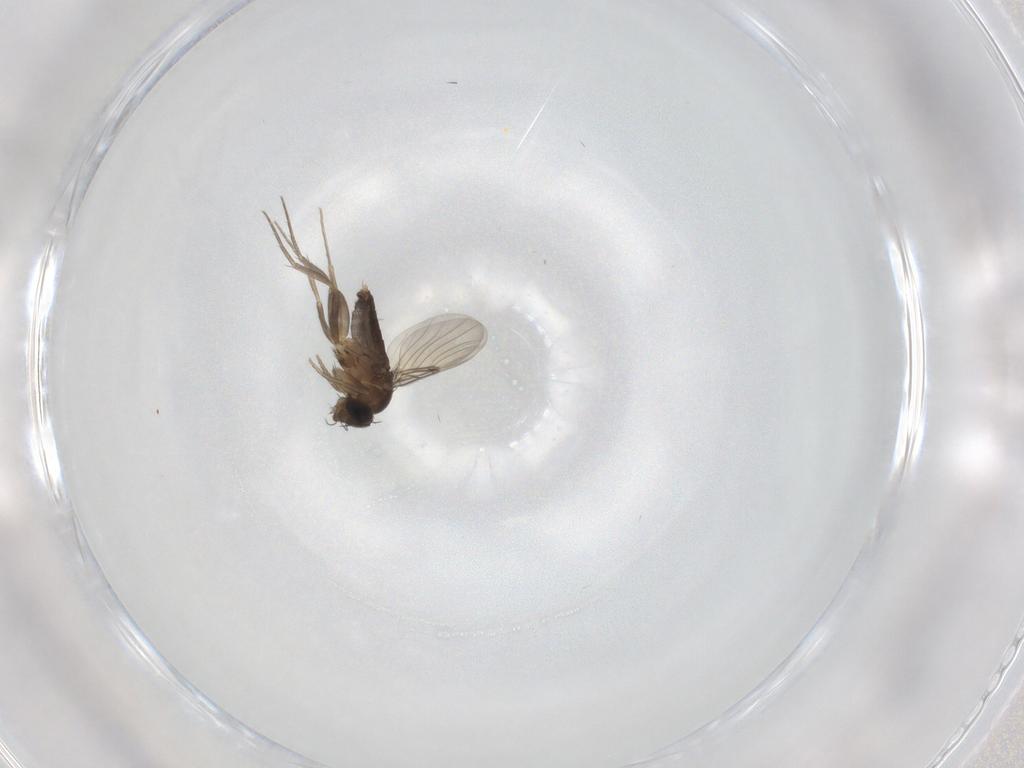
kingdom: Animalia
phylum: Arthropoda
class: Insecta
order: Diptera
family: Phoridae
